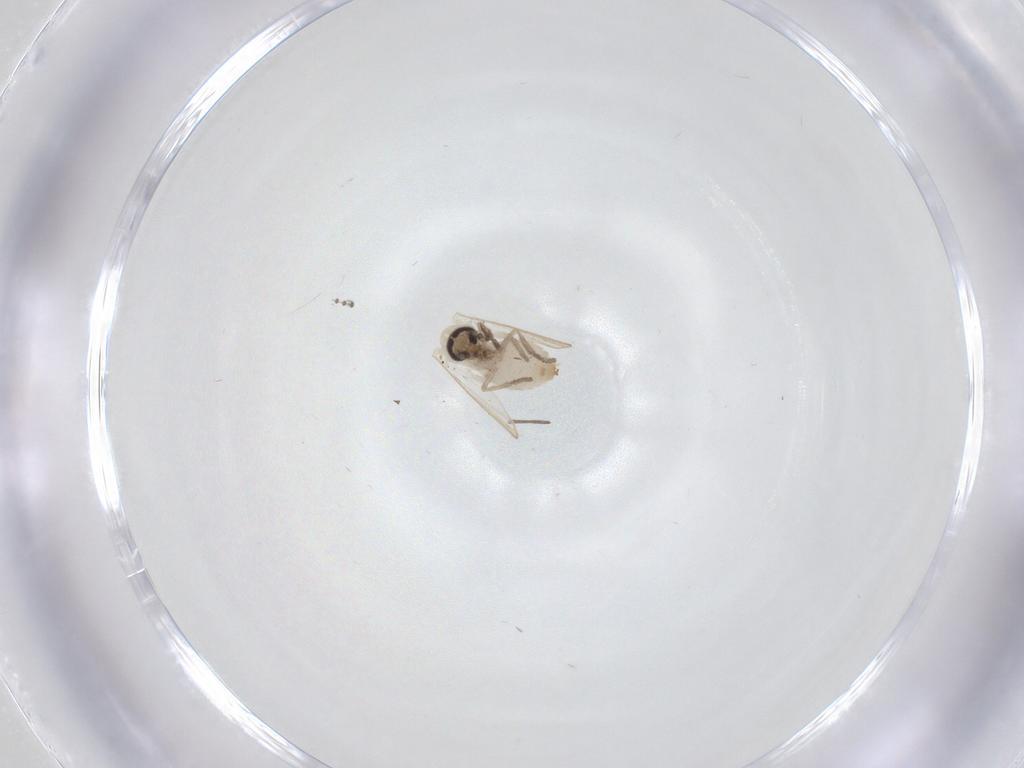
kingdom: Animalia
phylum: Arthropoda
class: Insecta
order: Diptera
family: Psychodidae
